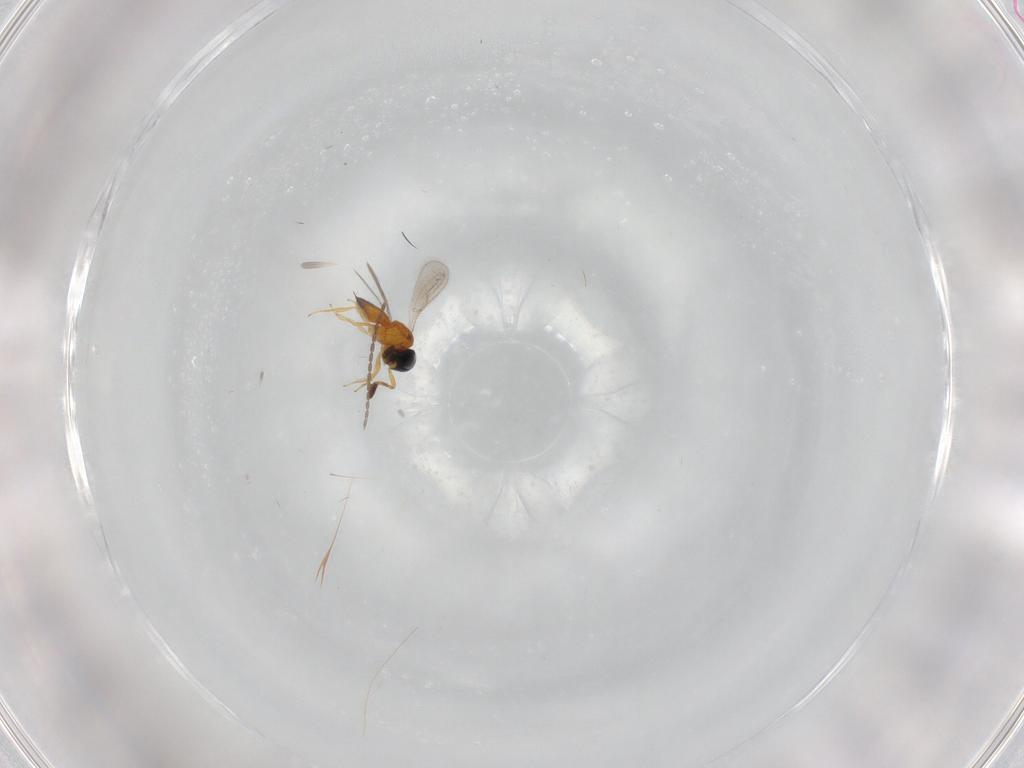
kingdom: Animalia
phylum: Arthropoda
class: Insecta
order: Hymenoptera
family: Scelionidae
